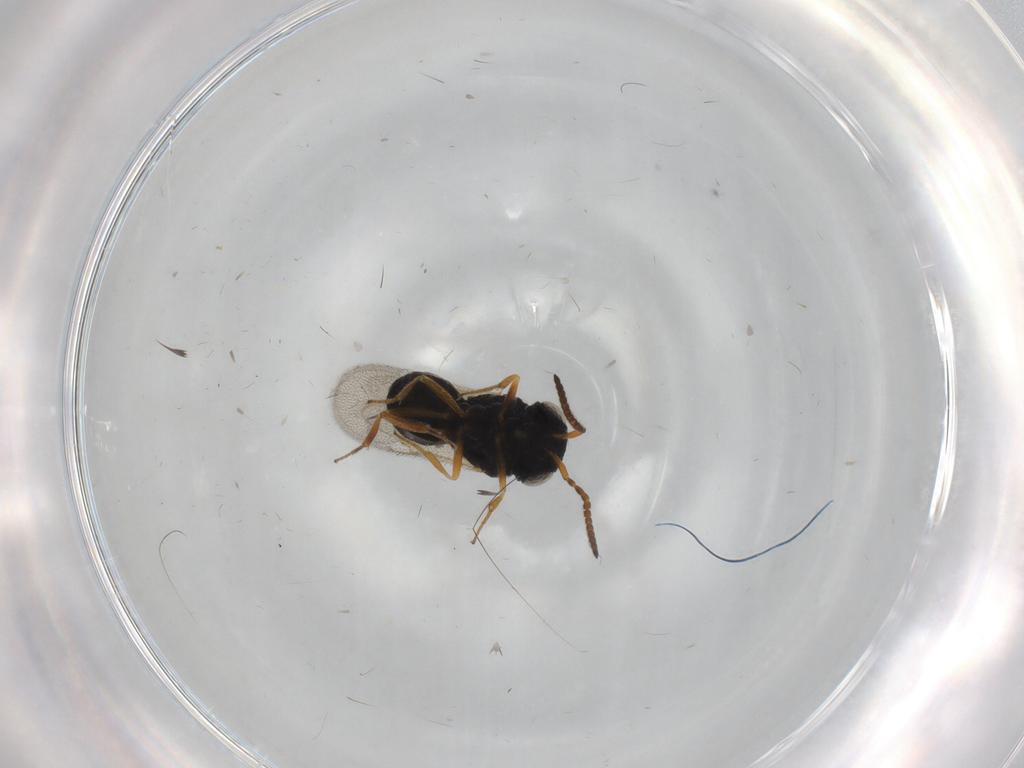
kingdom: Animalia
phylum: Arthropoda
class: Insecta
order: Hymenoptera
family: Scelionidae
